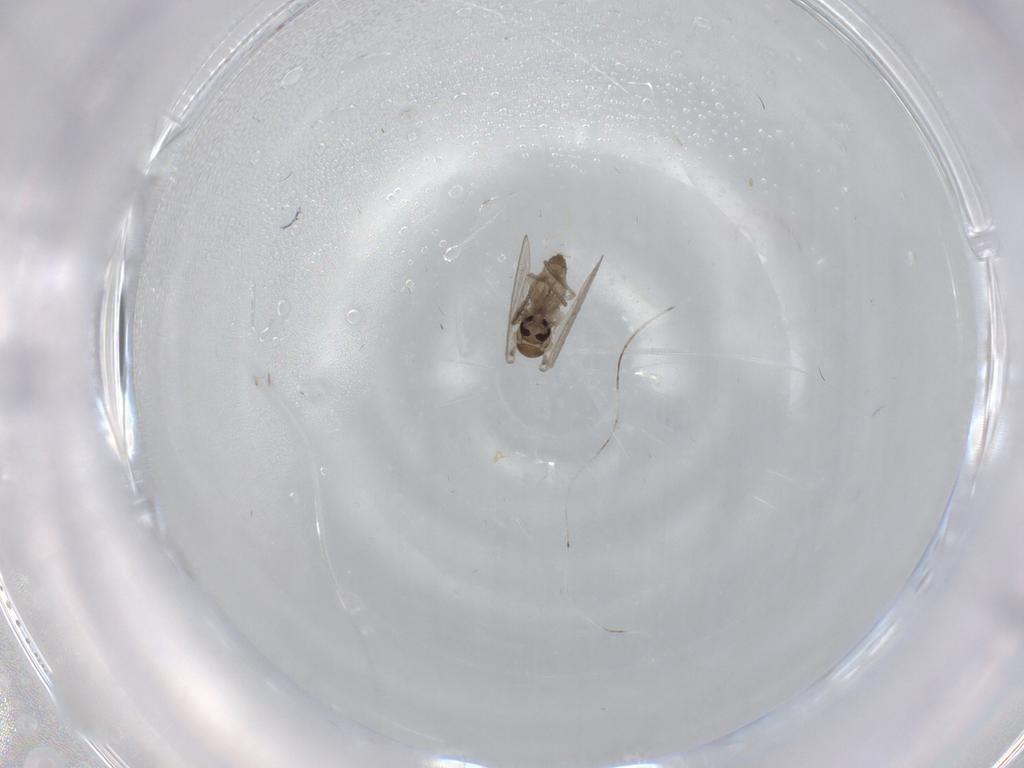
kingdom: Animalia
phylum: Arthropoda
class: Insecta
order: Diptera
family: Psychodidae
